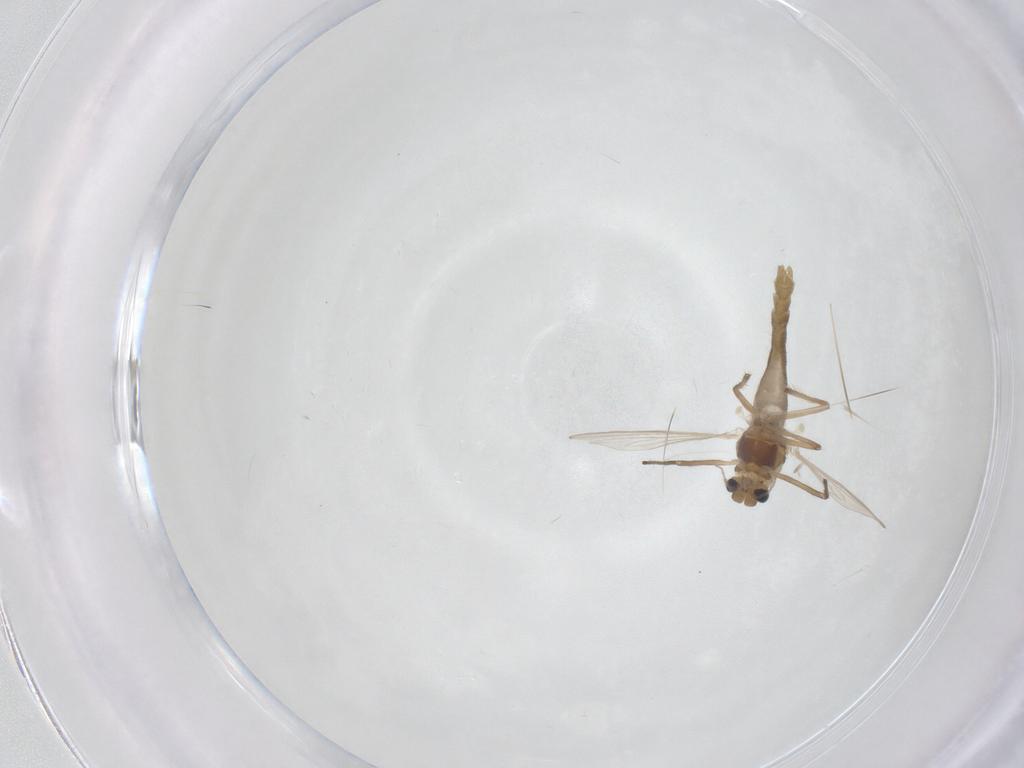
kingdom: Animalia
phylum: Arthropoda
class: Insecta
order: Diptera
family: Chironomidae
